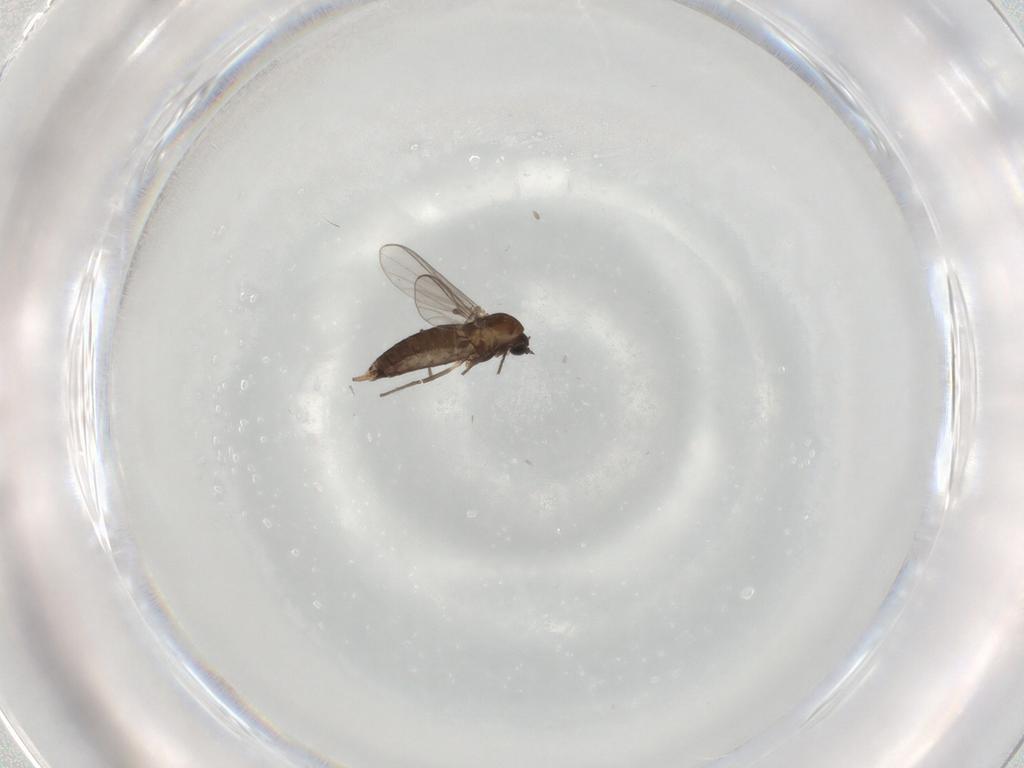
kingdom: Animalia
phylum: Arthropoda
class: Insecta
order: Diptera
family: Chironomidae
